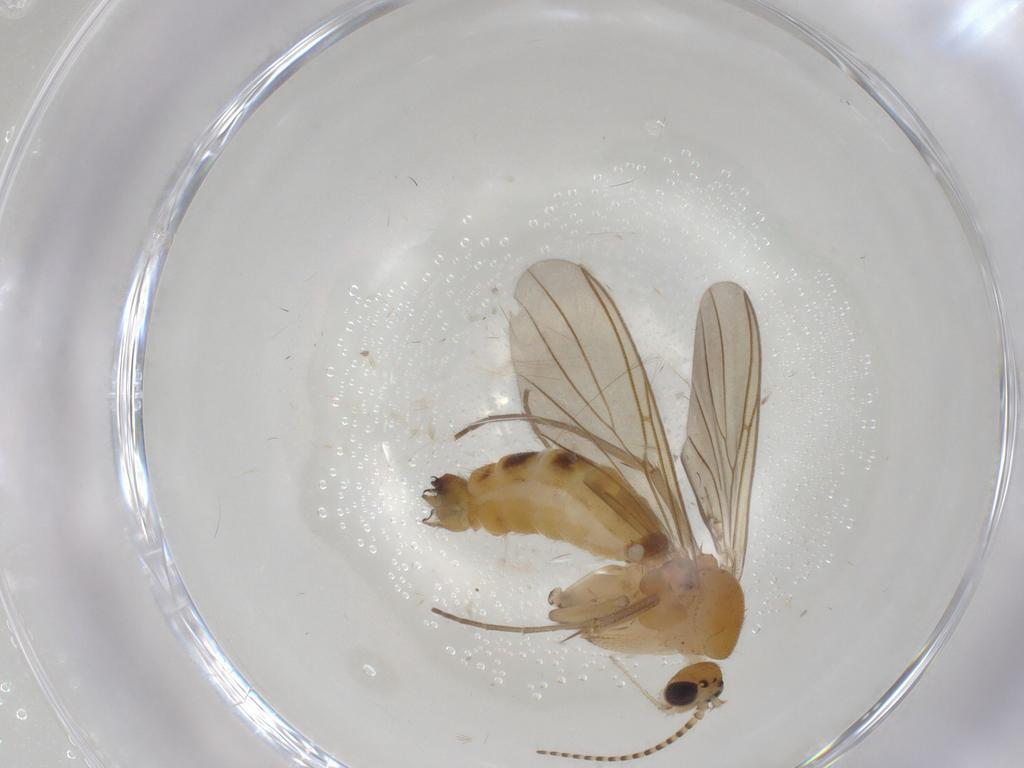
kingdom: Animalia
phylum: Arthropoda
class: Insecta
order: Diptera
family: Mycetophilidae
